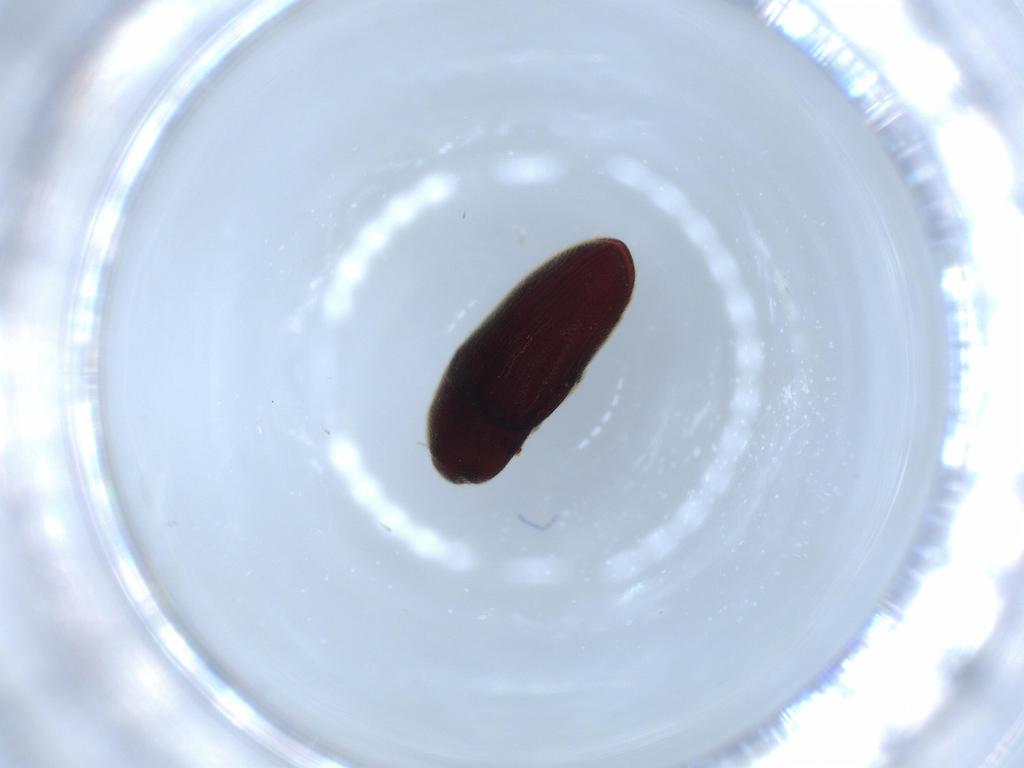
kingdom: Animalia
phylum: Arthropoda
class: Insecta
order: Coleoptera
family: Throscidae
